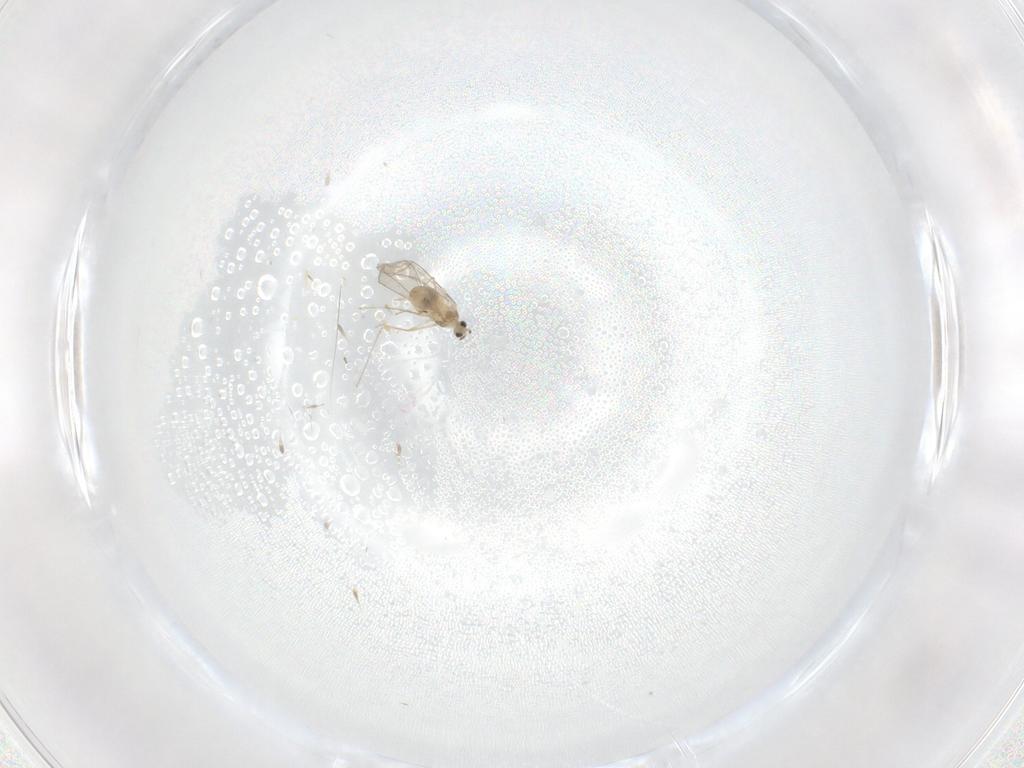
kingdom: Animalia
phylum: Arthropoda
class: Insecta
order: Diptera
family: Cecidomyiidae
